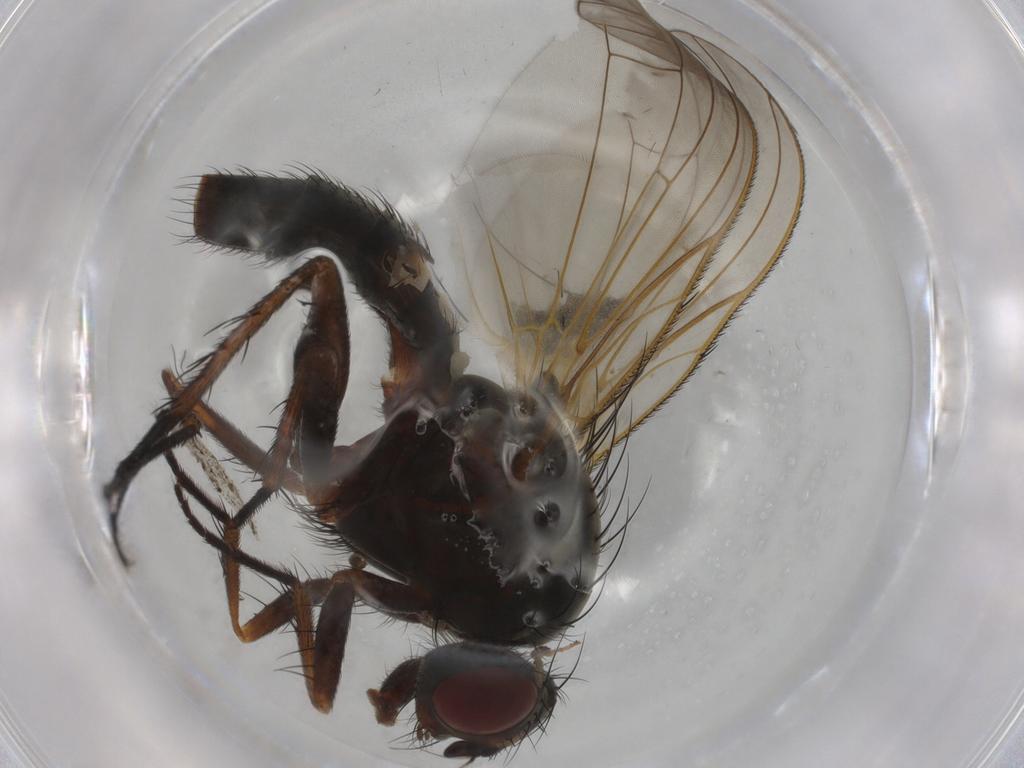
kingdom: Animalia
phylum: Arthropoda
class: Insecta
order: Diptera
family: Anthomyiidae
